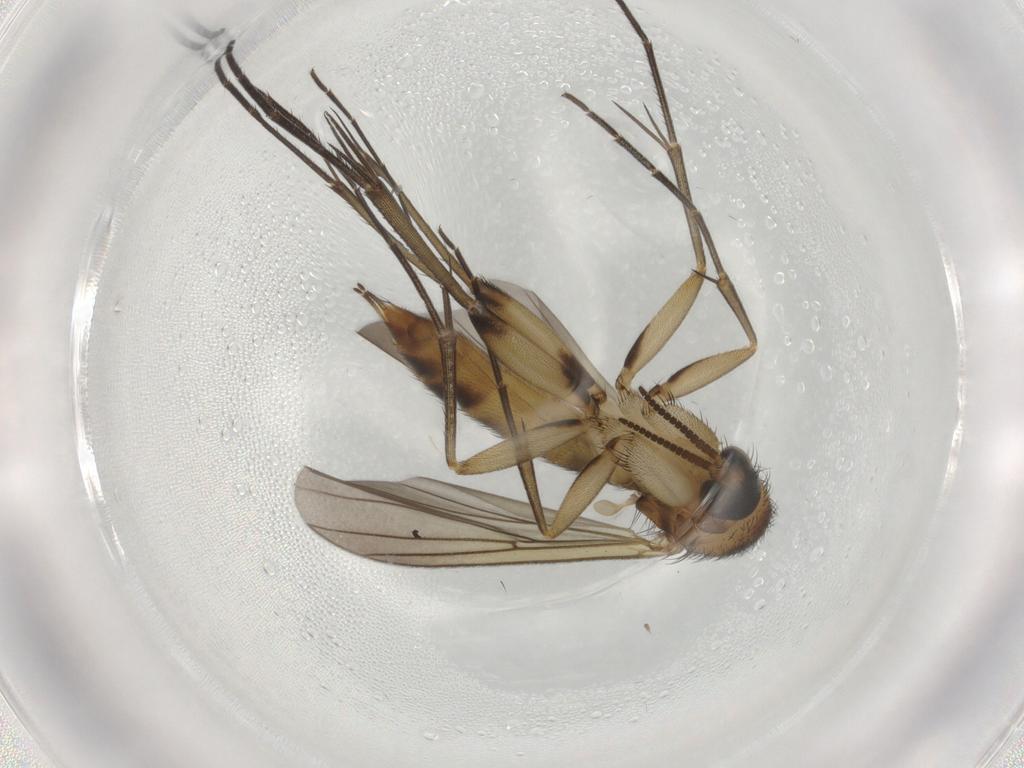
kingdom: Animalia
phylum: Arthropoda
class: Insecta
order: Diptera
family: Mycetophilidae
